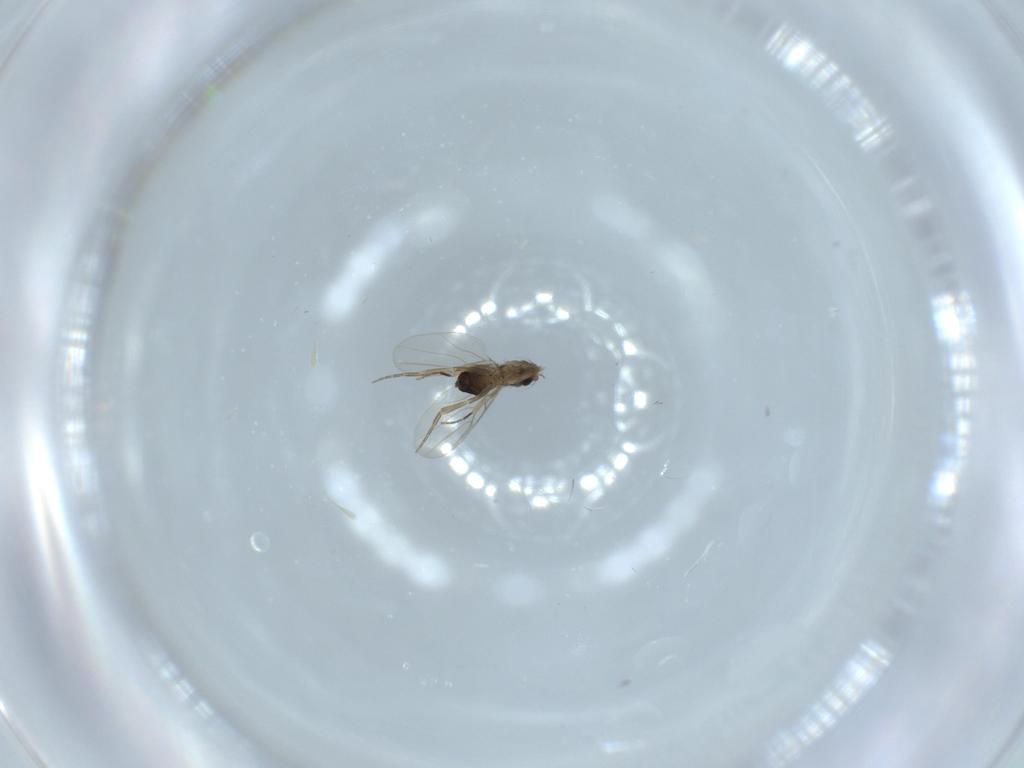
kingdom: Animalia
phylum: Arthropoda
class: Insecta
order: Diptera
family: Phoridae
